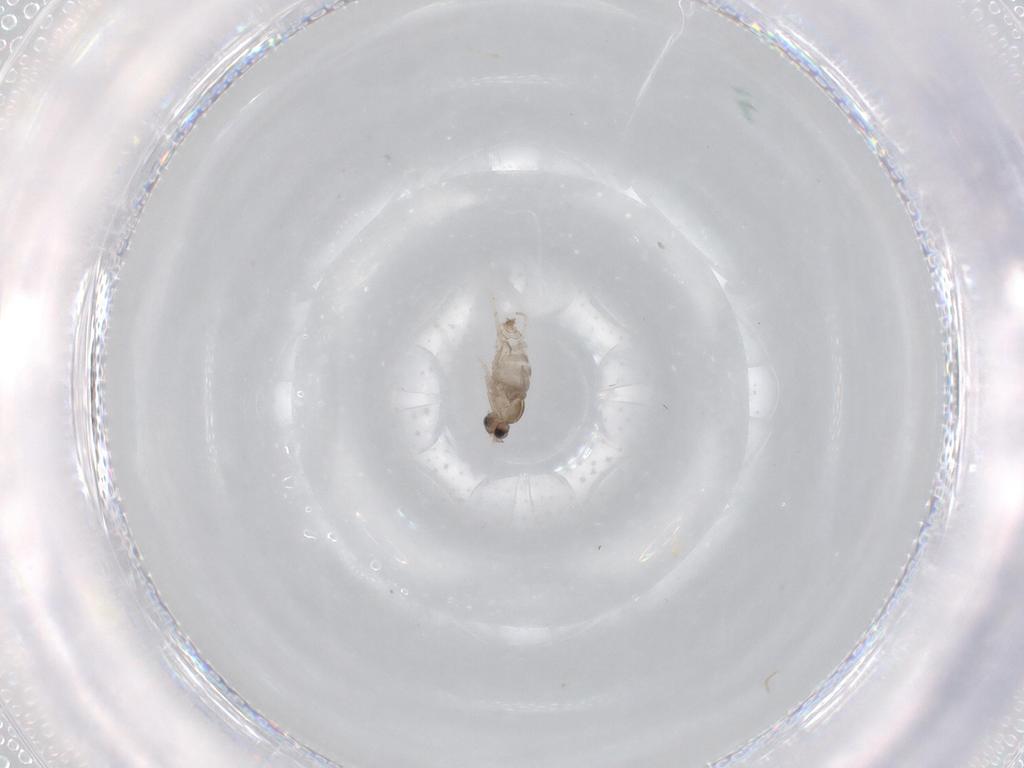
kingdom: Animalia
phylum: Arthropoda
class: Insecta
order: Diptera
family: Cecidomyiidae
